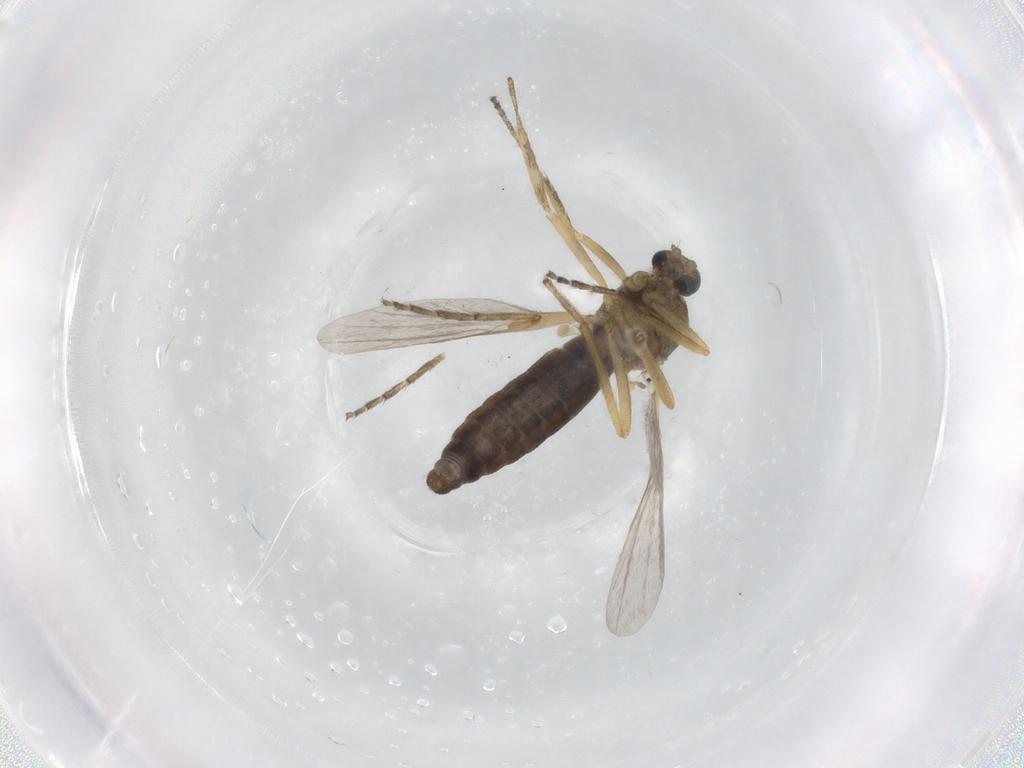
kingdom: Animalia
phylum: Arthropoda
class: Insecta
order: Diptera
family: Ceratopogonidae
